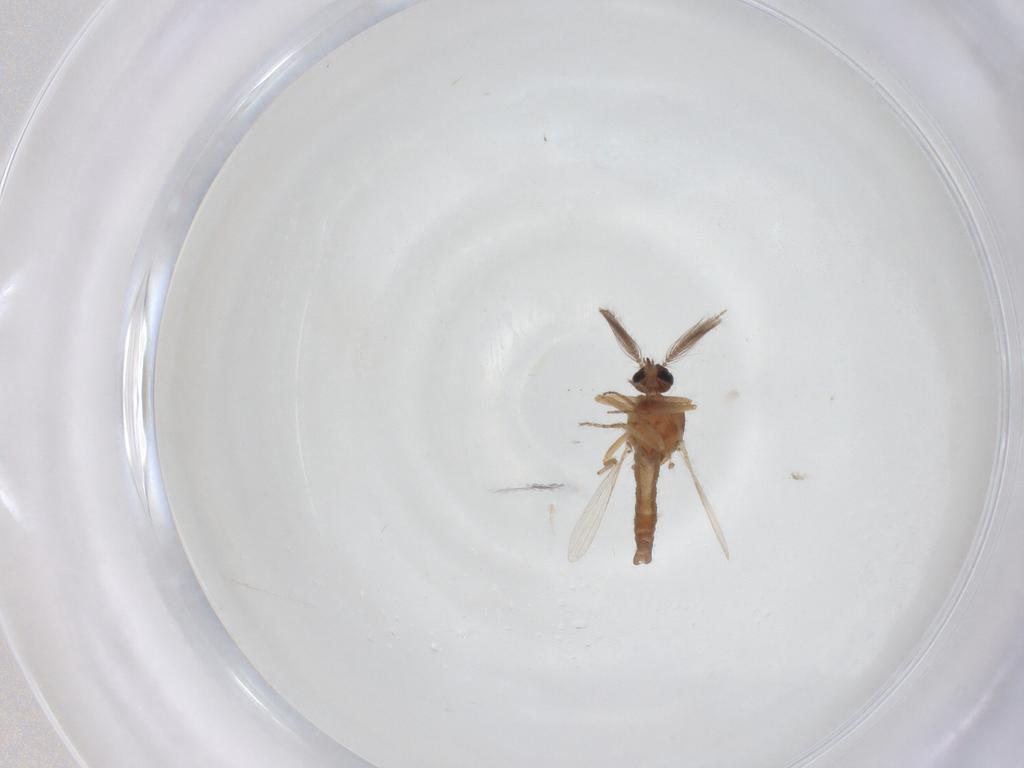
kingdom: Animalia
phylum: Arthropoda
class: Insecta
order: Diptera
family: Ceratopogonidae
